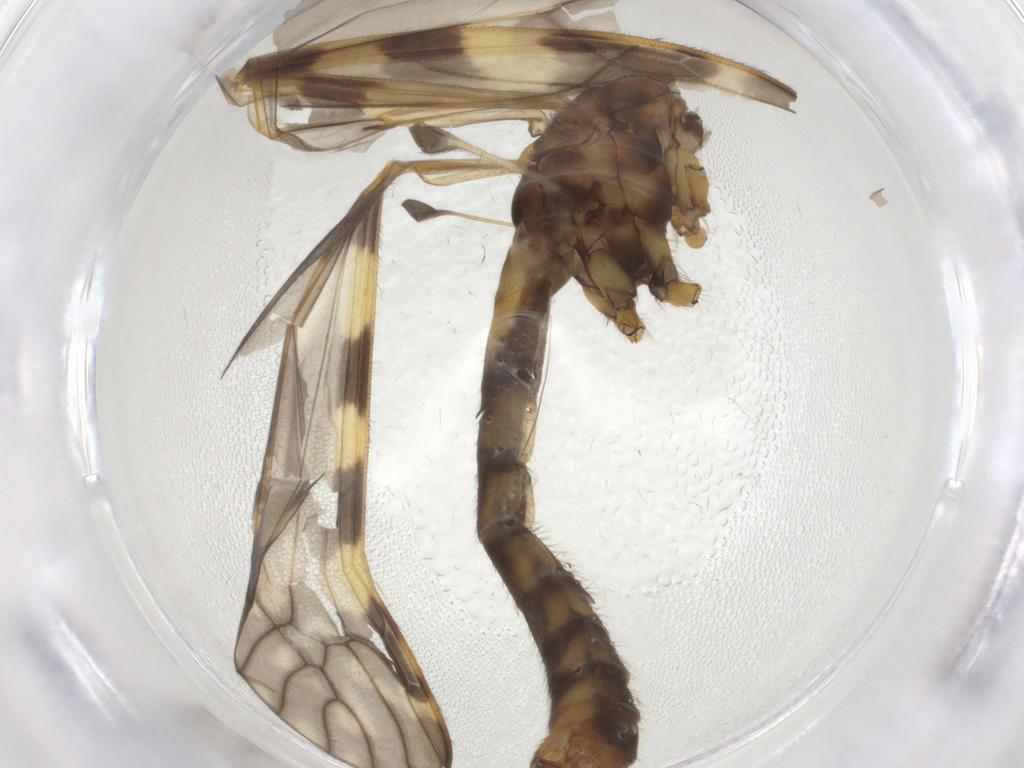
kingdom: Animalia
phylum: Arthropoda
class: Insecta
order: Diptera
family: Tipulidae
